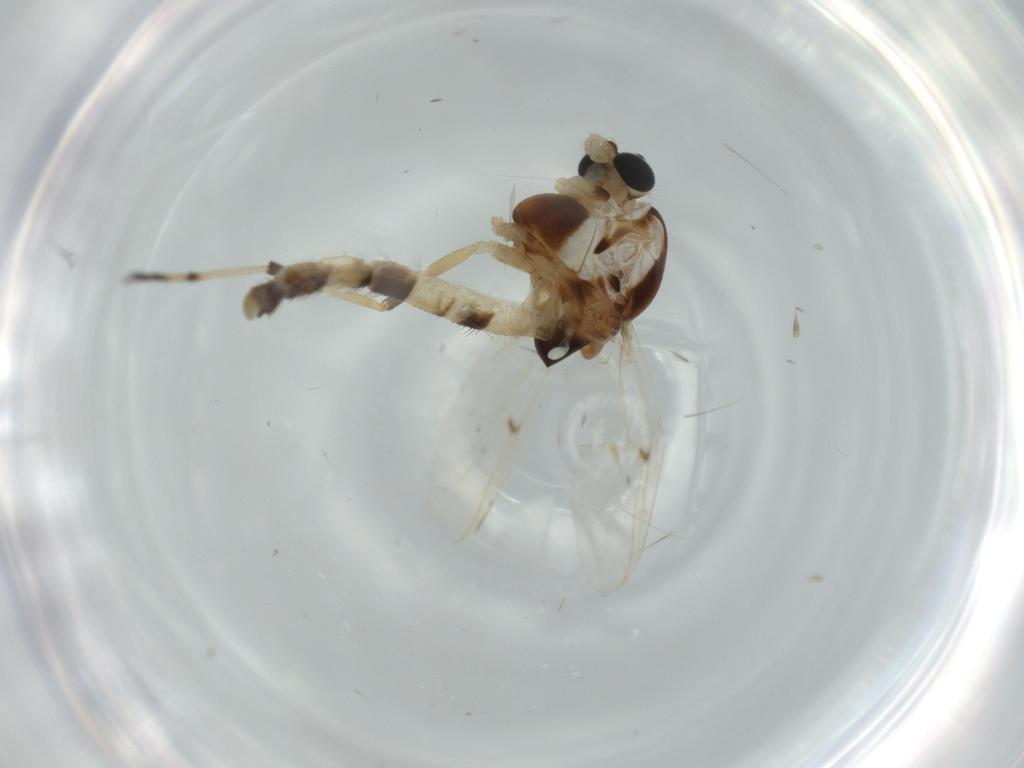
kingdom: Animalia
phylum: Arthropoda
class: Insecta
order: Diptera
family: Chironomidae
